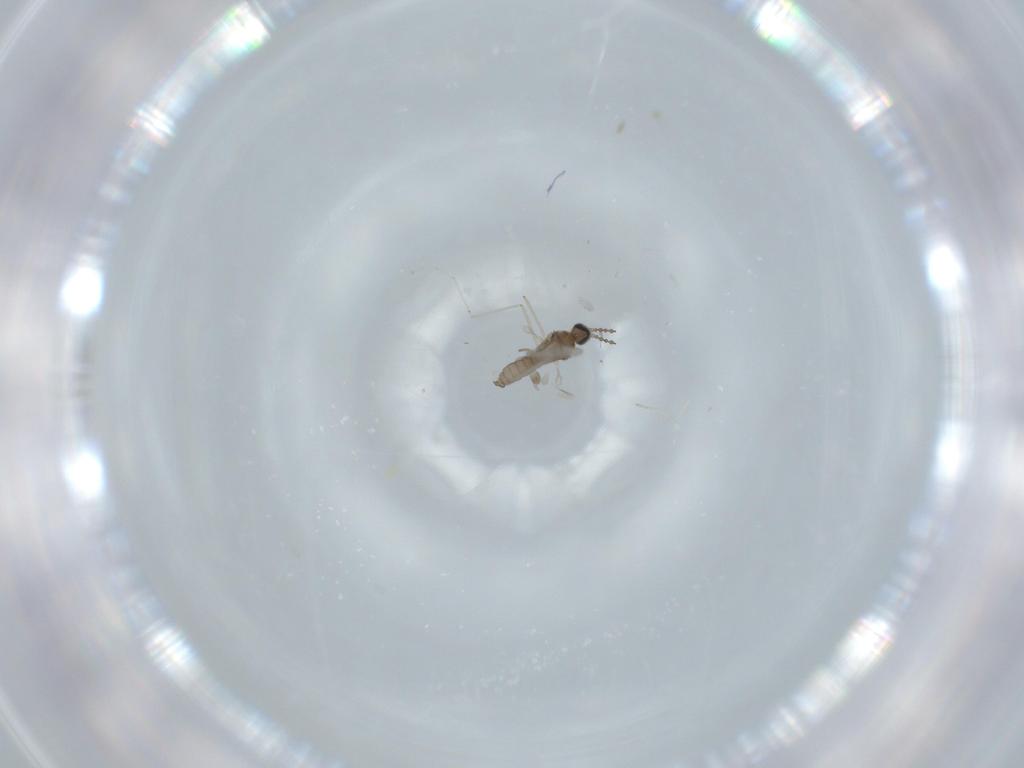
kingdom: Animalia
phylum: Arthropoda
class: Insecta
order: Diptera
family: Cecidomyiidae
